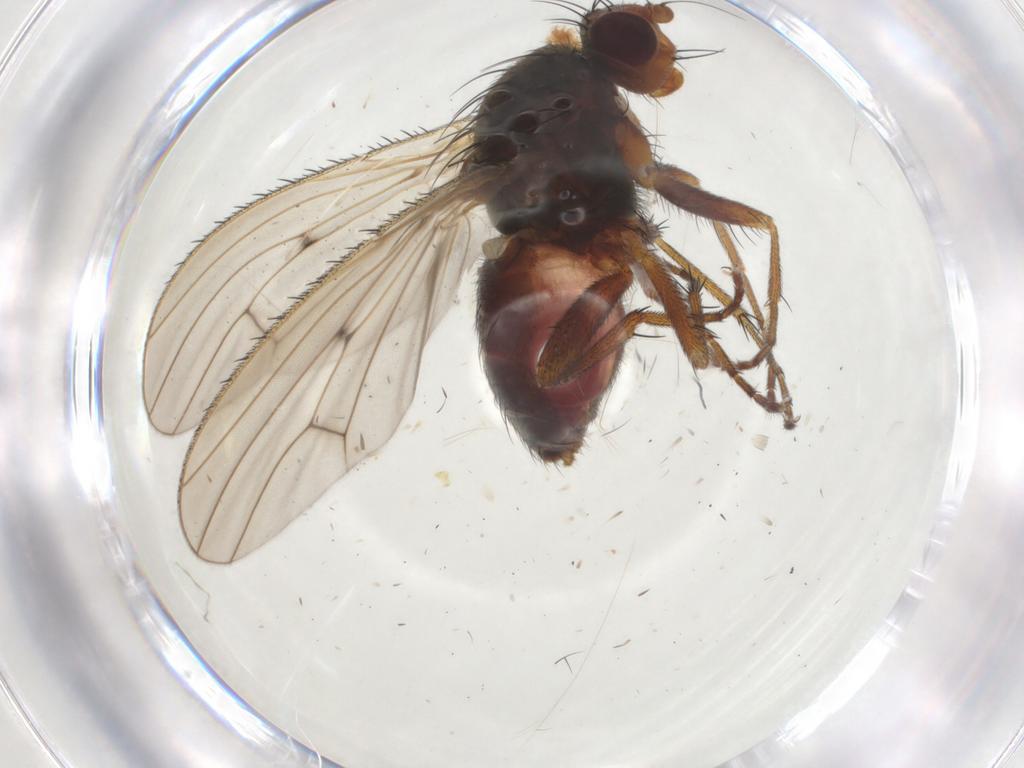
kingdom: Animalia
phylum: Arthropoda
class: Insecta
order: Diptera
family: Heleomyzidae
